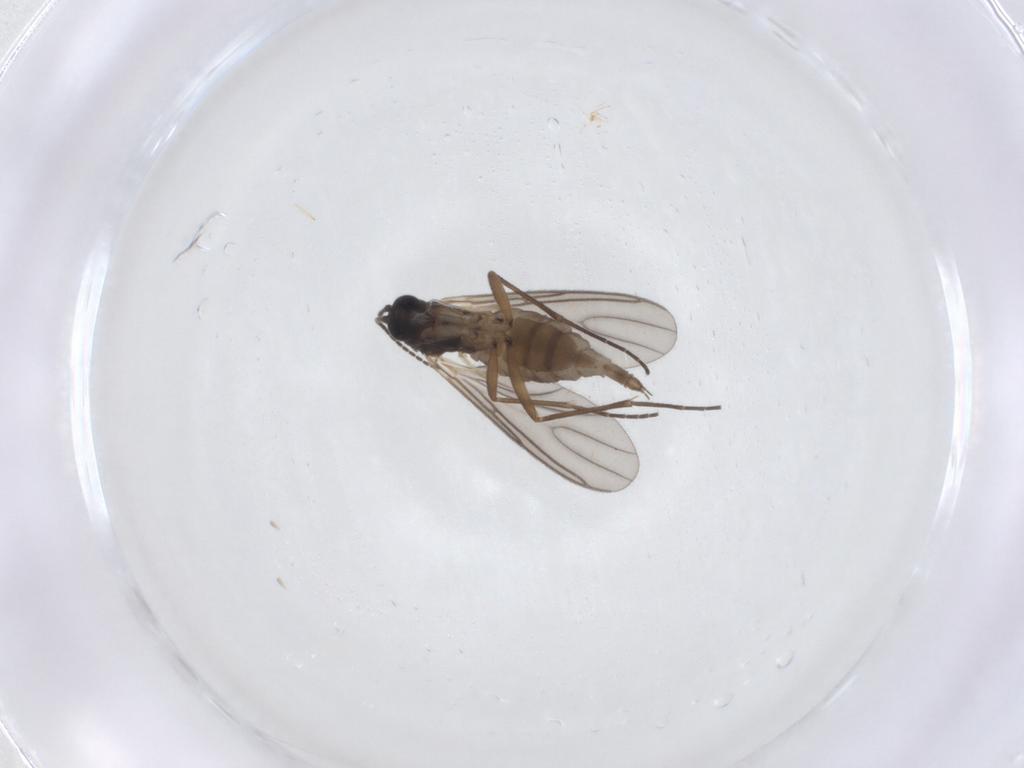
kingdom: Animalia
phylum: Arthropoda
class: Insecta
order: Diptera
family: Sciaridae
